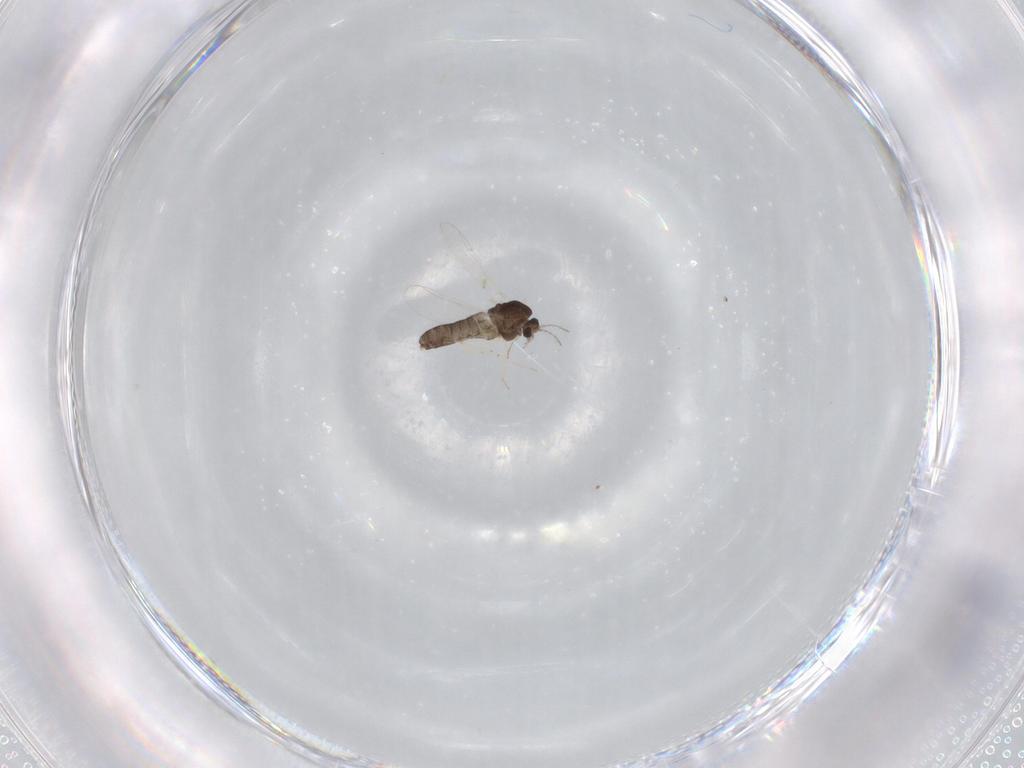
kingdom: Animalia
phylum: Arthropoda
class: Insecta
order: Diptera
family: Chironomidae
